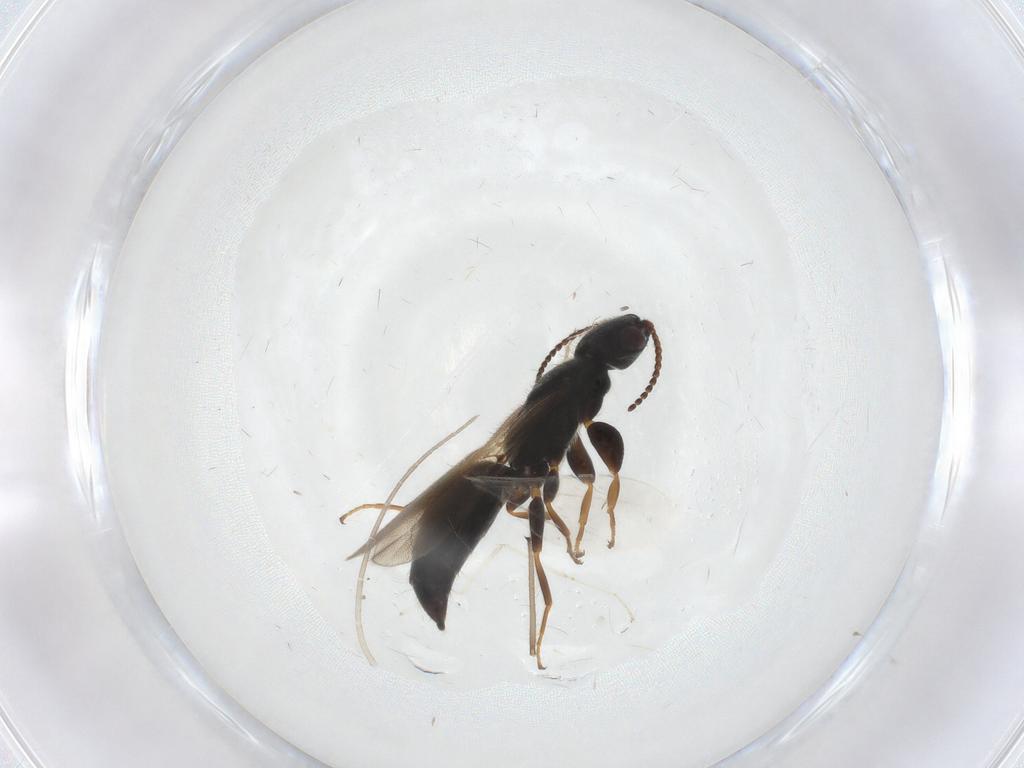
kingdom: Animalia
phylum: Arthropoda
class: Insecta
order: Hymenoptera
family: Bethylidae
